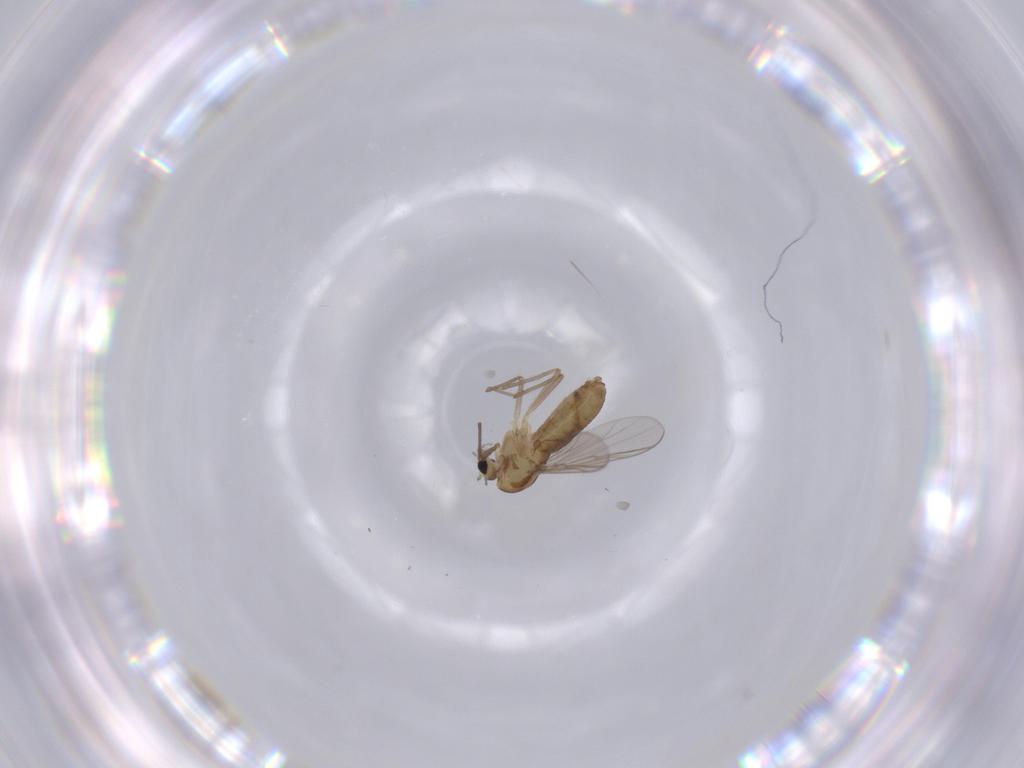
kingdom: Animalia
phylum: Arthropoda
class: Insecta
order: Diptera
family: Chironomidae
